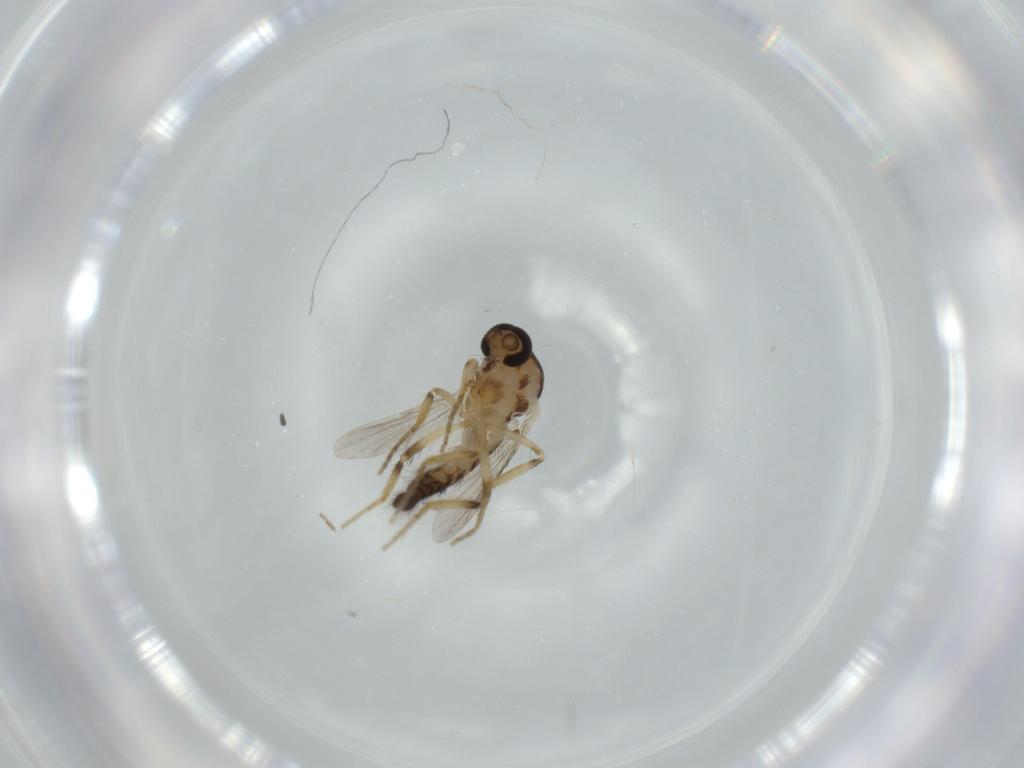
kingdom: Animalia
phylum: Arthropoda
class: Insecta
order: Diptera
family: Ceratopogonidae
